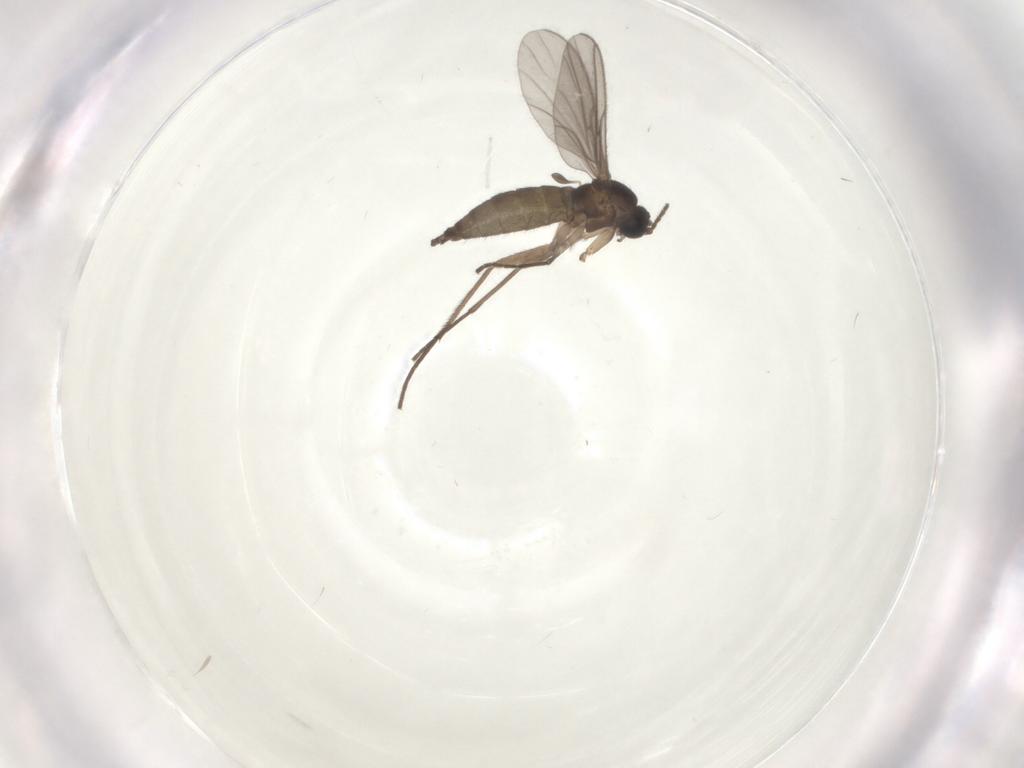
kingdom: Animalia
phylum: Arthropoda
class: Insecta
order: Diptera
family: Sciaridae
